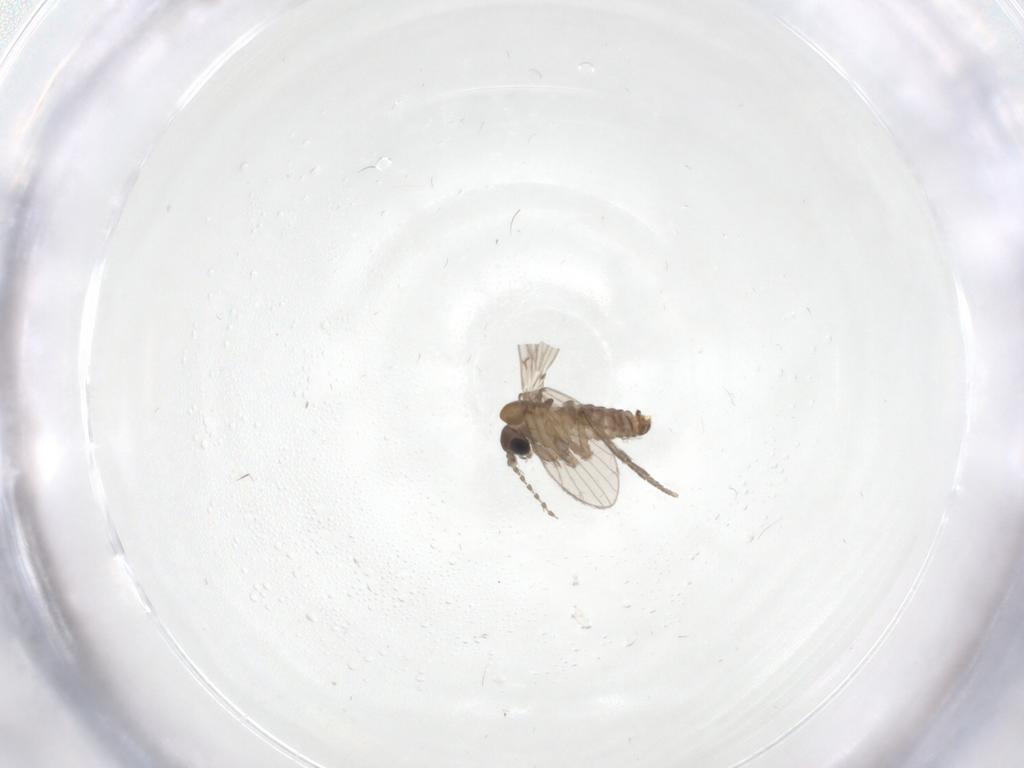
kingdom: Animalia
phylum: Arthropoda
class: Insecta
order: Diptera
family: Psychodidae
